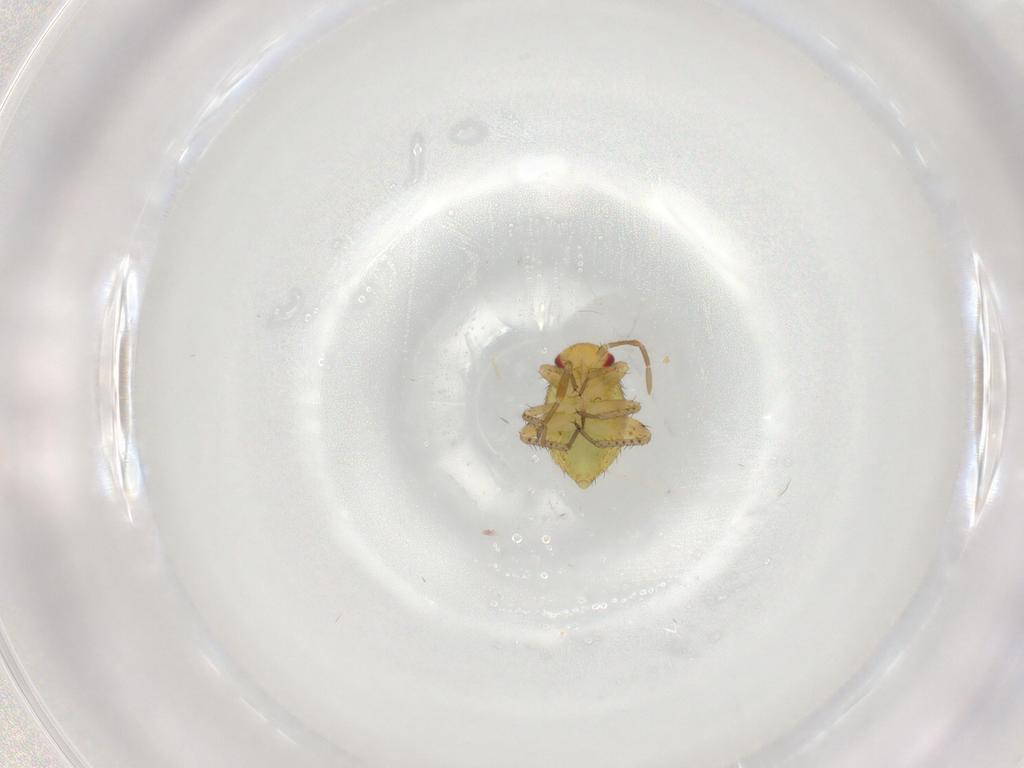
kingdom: Animalia
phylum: Arthropoda
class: Insecta
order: Hemiptera
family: Miridae
